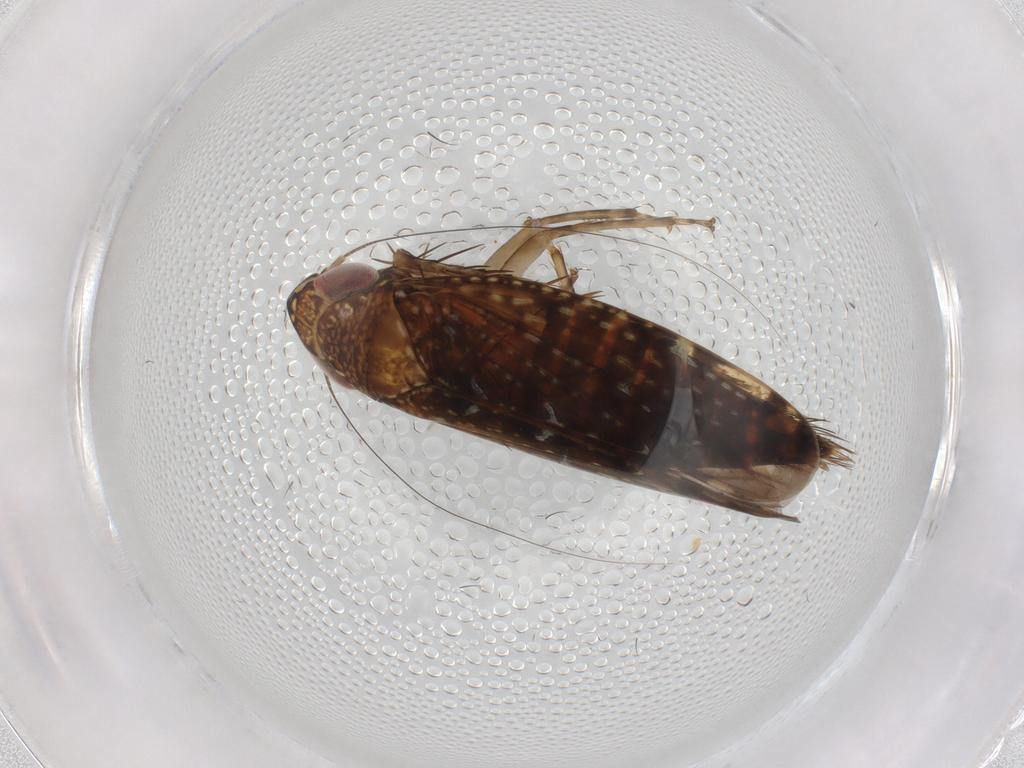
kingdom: Animalia
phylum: Arthropoda
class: Insecta
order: Hemiptera
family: Cicadellidae
